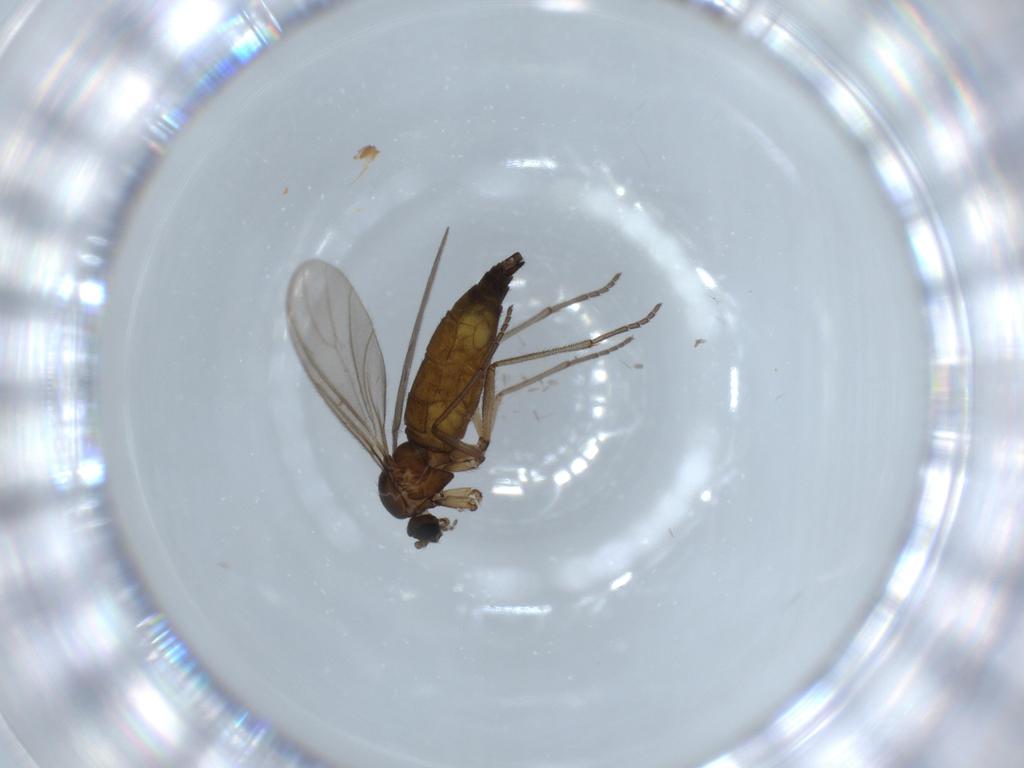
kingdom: Animalia
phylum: Arthropoda
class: Insecta
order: Diptera
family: Sciaridae
